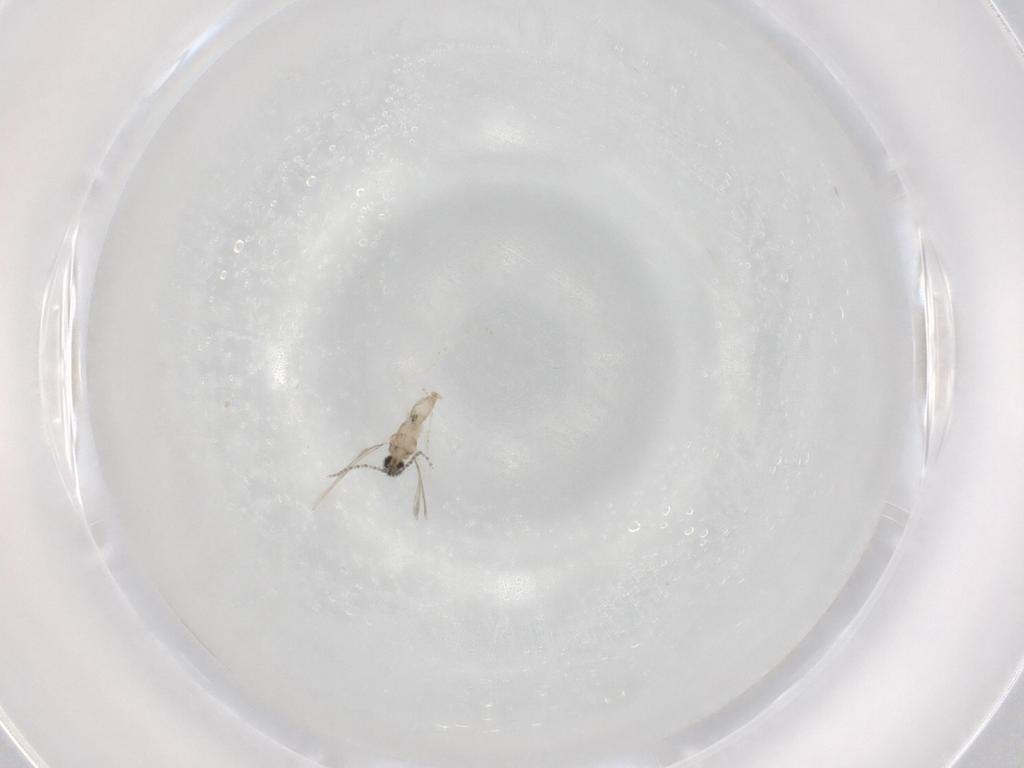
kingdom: Animalia
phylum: Arthropoda
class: Insecta
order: Diptera
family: Cecidomyiidae
